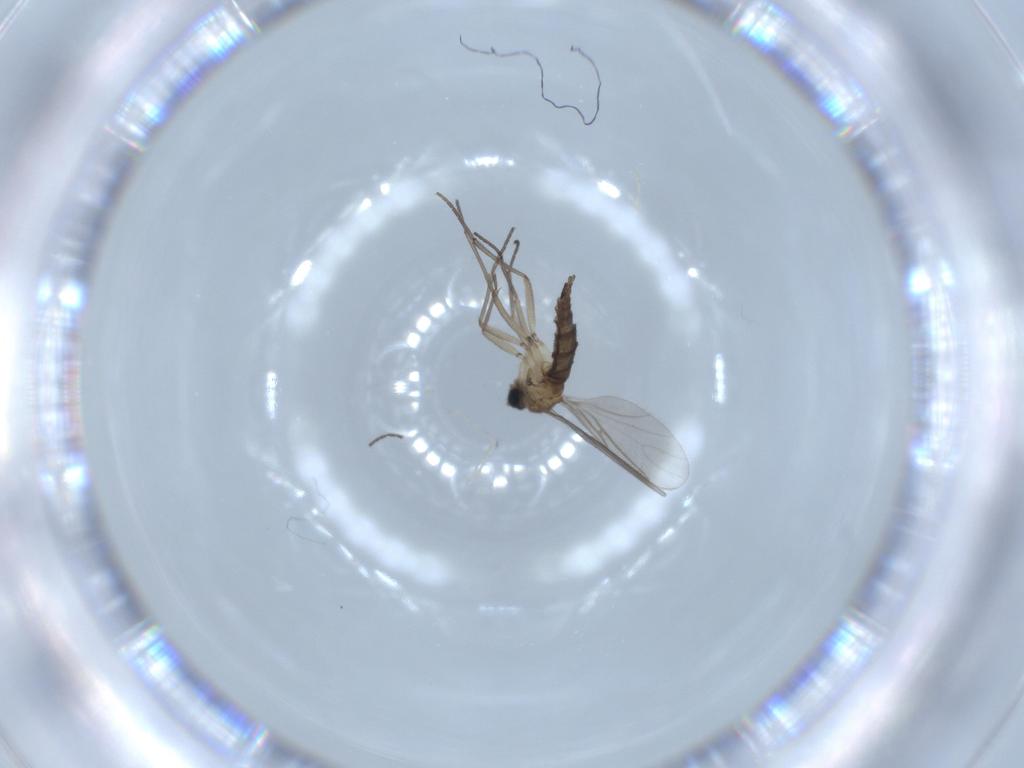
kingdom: Animalia
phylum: Arthropoda
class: Insecta
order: Diptera
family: Sciaridae
